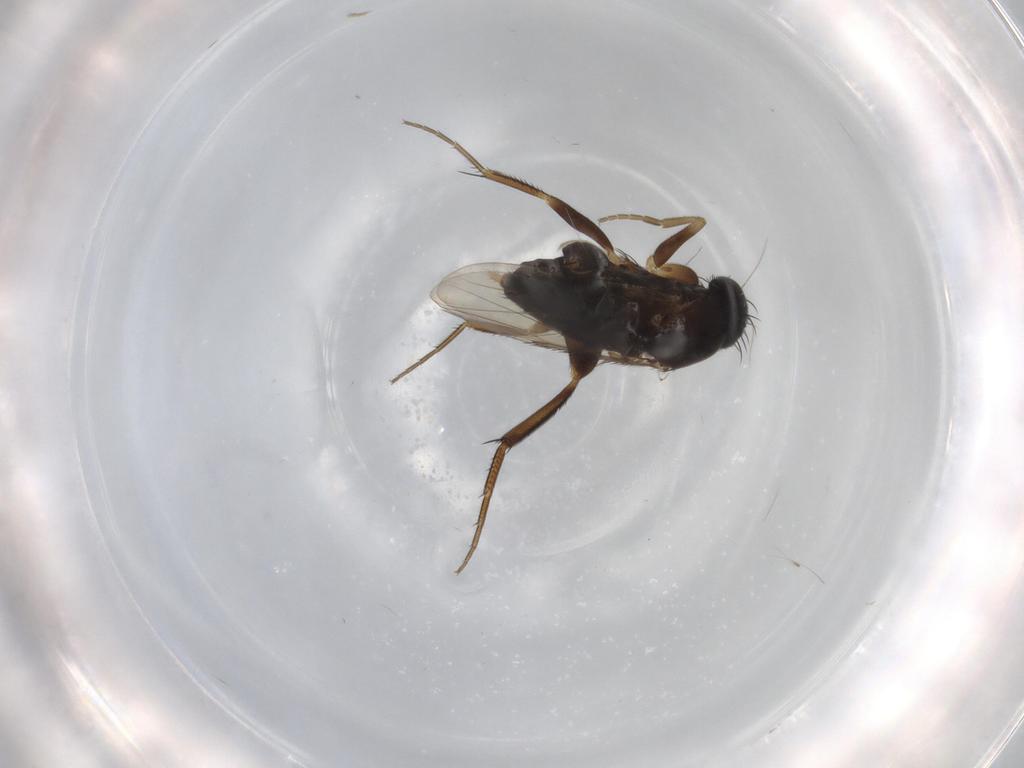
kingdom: Animalia
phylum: Arthropoda
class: Insecta
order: Diptera
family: Phoridae
